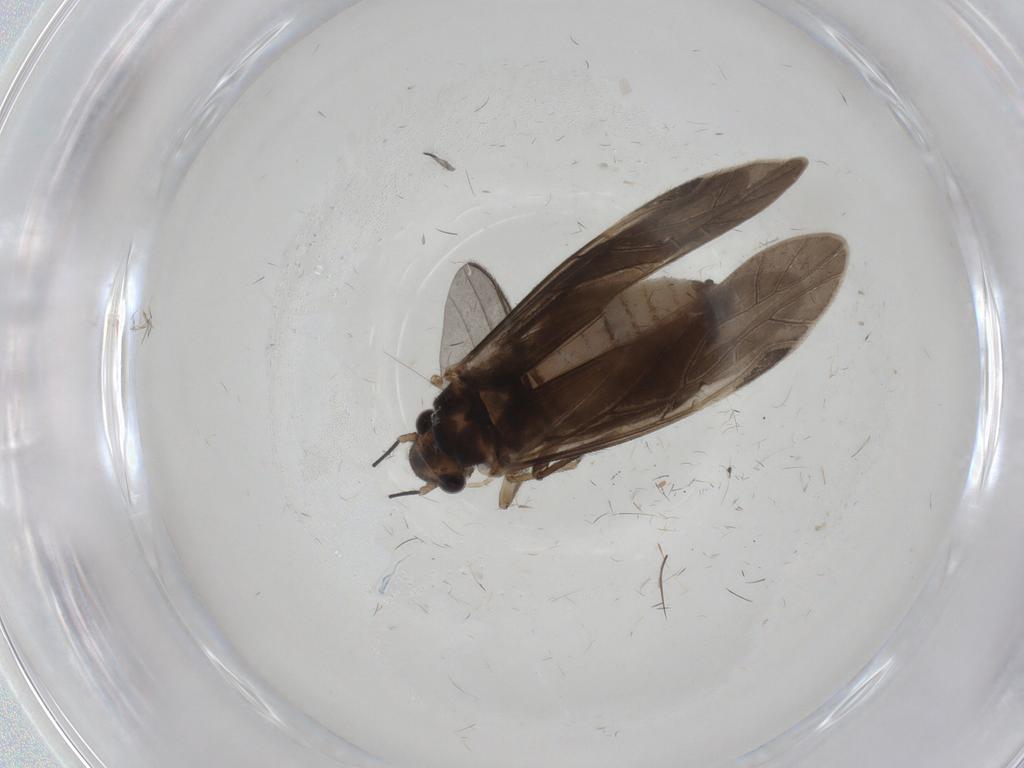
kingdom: Animalia
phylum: Arthropoda
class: Insecta
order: Psocodea
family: Caeciliusidae
